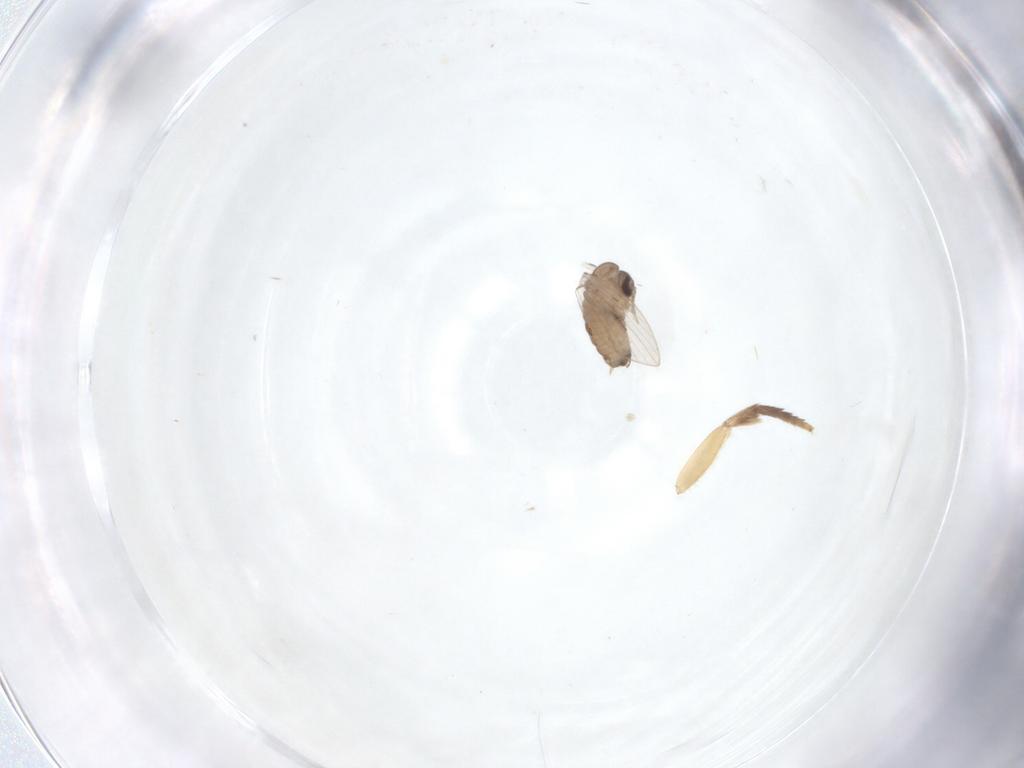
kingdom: Animalia
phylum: Arthropoda
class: Insecta
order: Diptera
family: Psychodidae
